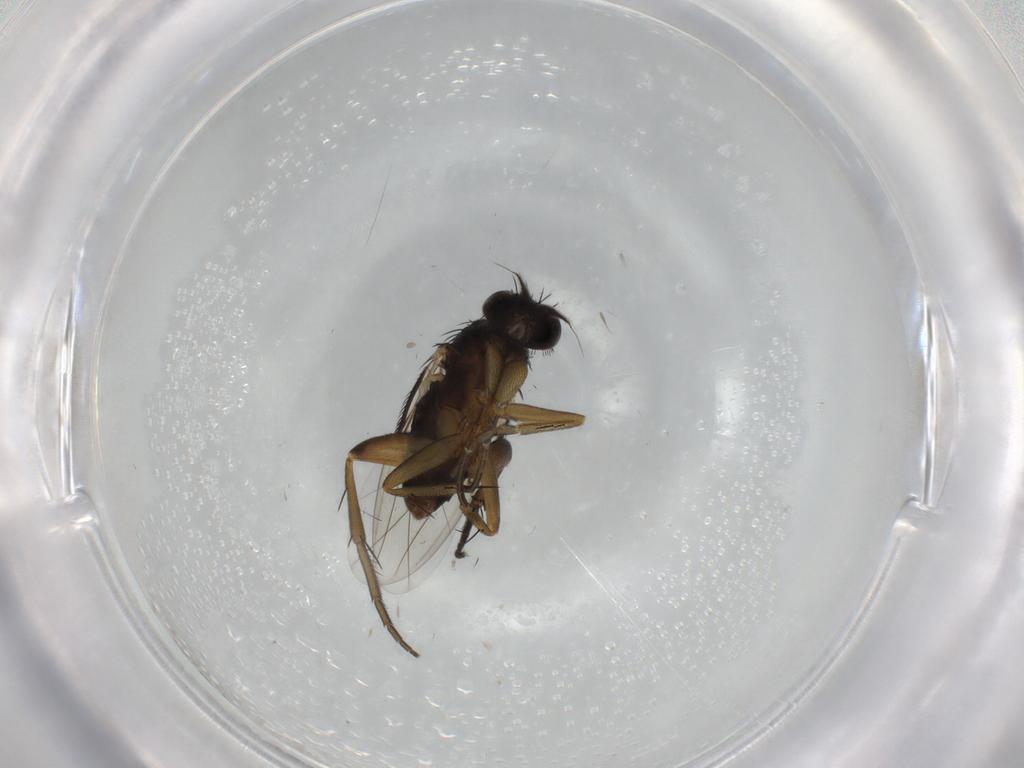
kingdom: Animalia
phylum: Arthropoda
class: Insecta
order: Diptera
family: Phoridae
